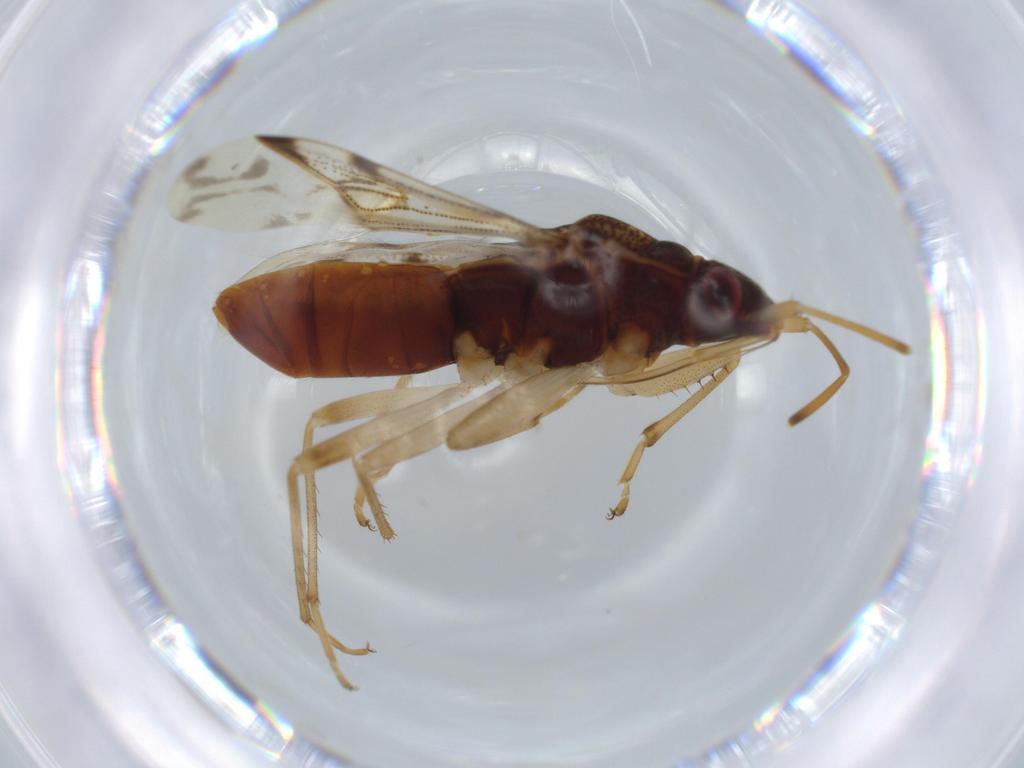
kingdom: Animalia
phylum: Arthropoda
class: Insecta
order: Hemiptera
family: Rhyparochromidae
